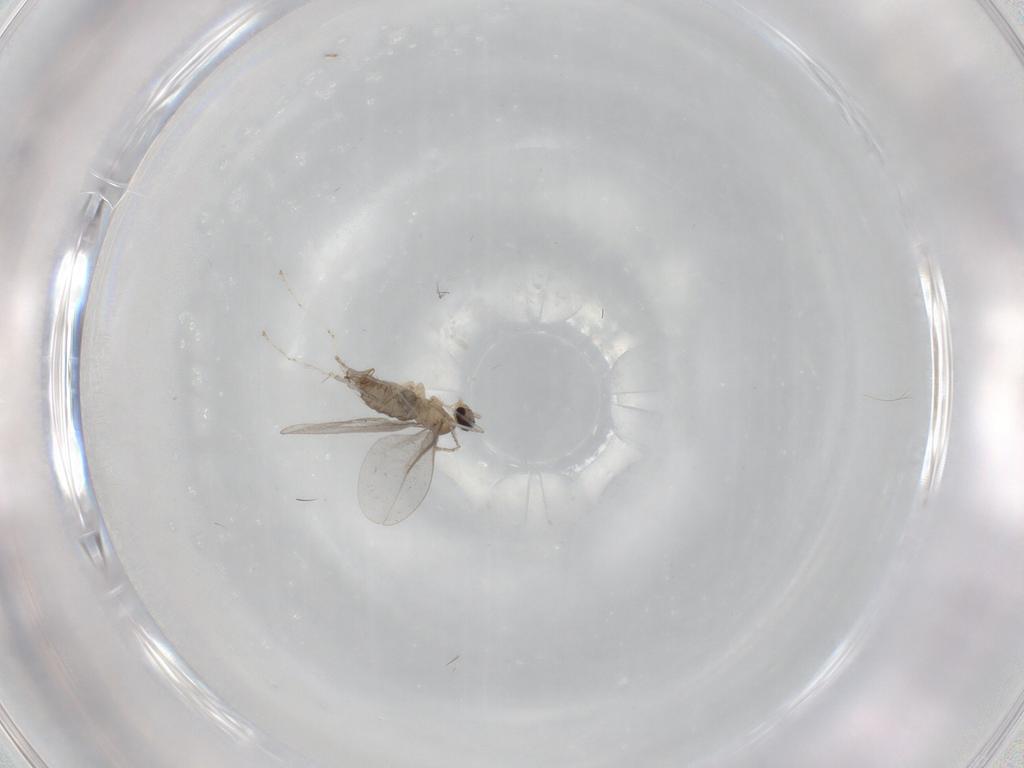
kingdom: Animalia
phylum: Arthropoda
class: Insecta
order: Diptera
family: Cecidomyiidae
